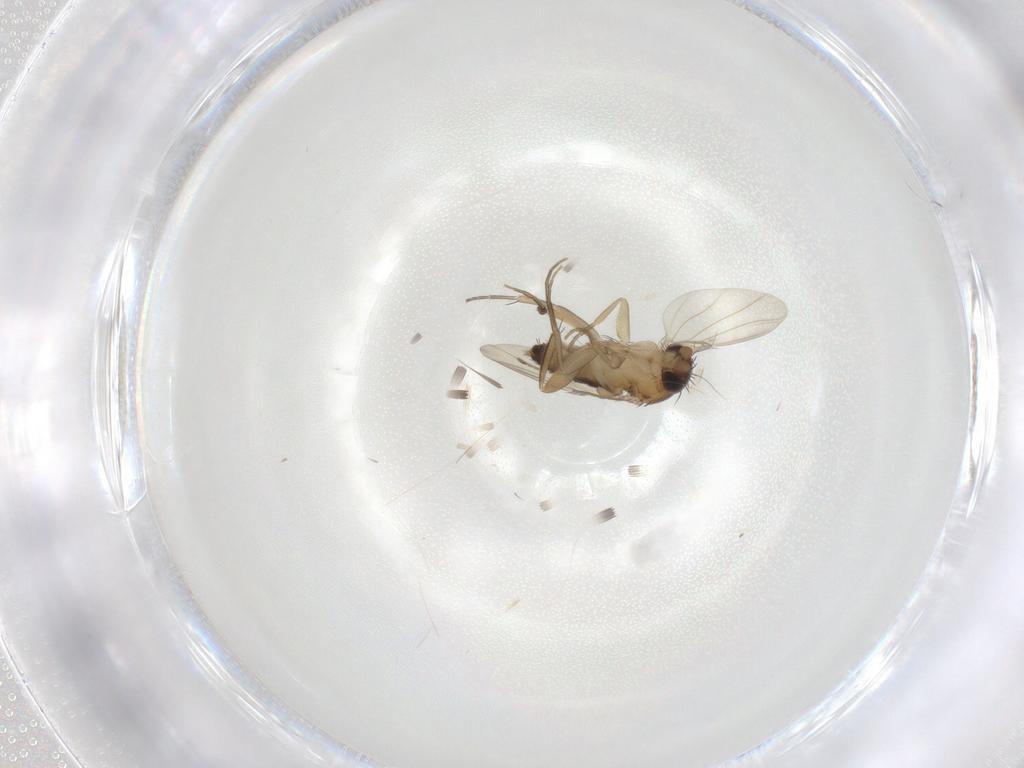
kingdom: Animalia
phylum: Arthropoda
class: Insecta
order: Diptera
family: Phoridae
